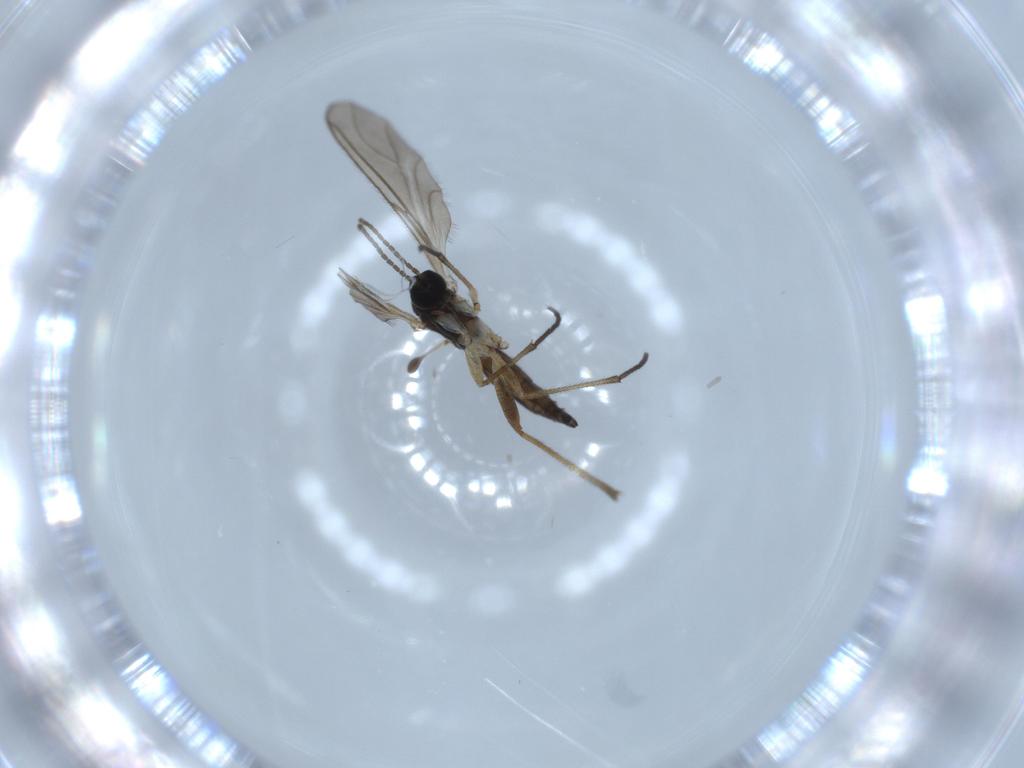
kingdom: Animalia
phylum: Arthropoda
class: Insecta
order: Diptera
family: Sciaridae
